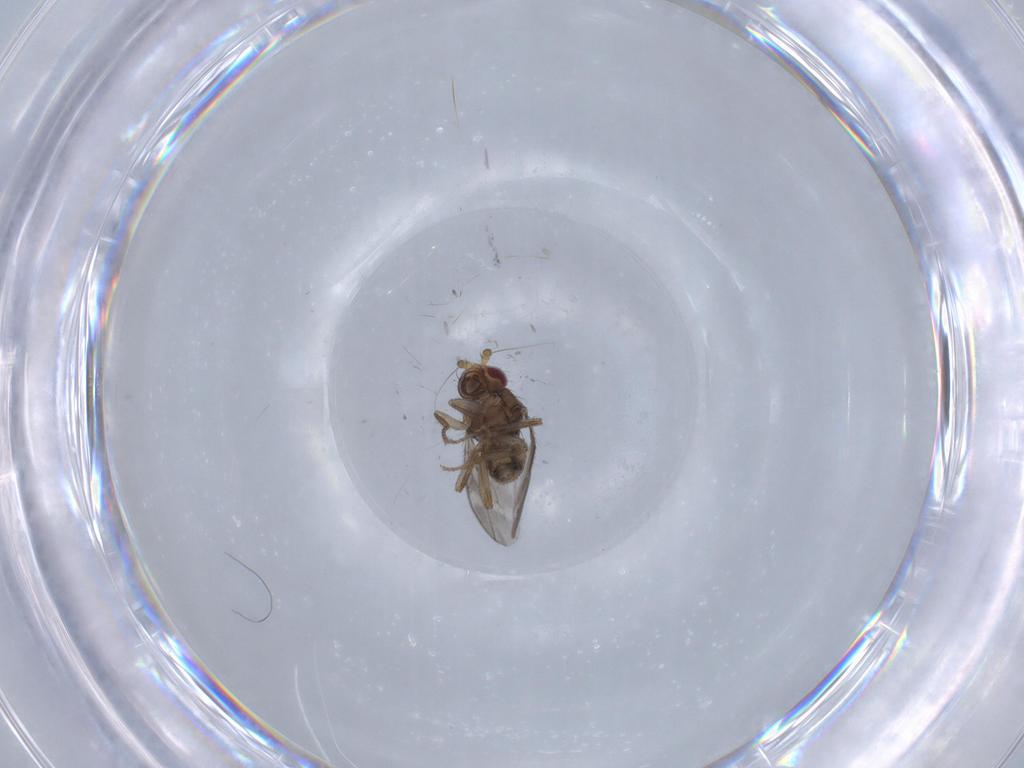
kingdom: Animalia
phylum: Arthropoda
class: Insecta
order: Diptera
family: Sphaeroceridae
